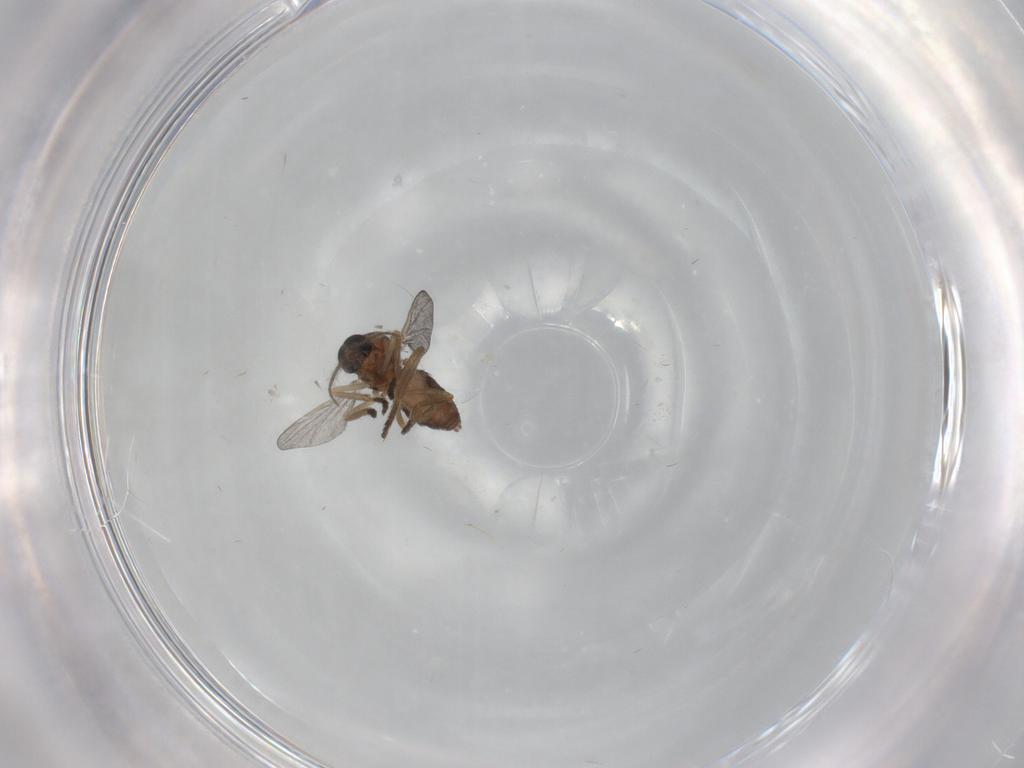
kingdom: Animalia
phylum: Arthropoda
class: Insecta
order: Diptera
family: Ceratopogonidae
